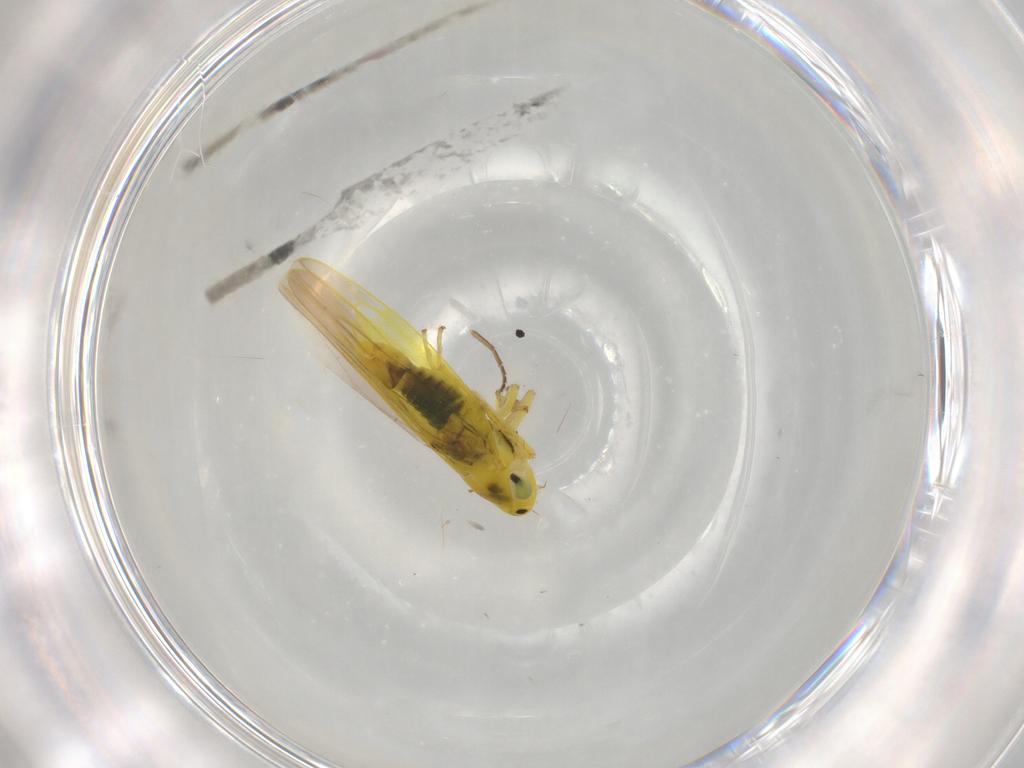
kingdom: Animalia
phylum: Arthropoda
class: Insecta
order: Hemiptera
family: Cicadellidae
